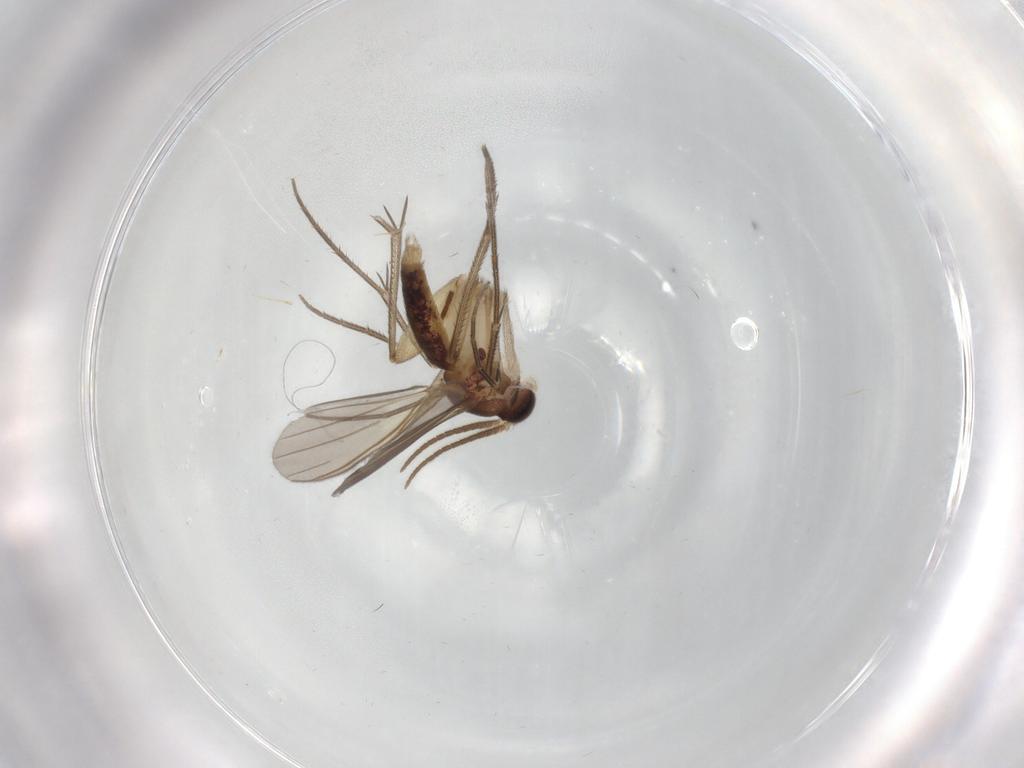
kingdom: Animalia
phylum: Arthropoda
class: Insecta
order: Diptera
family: Mycetophilidae
